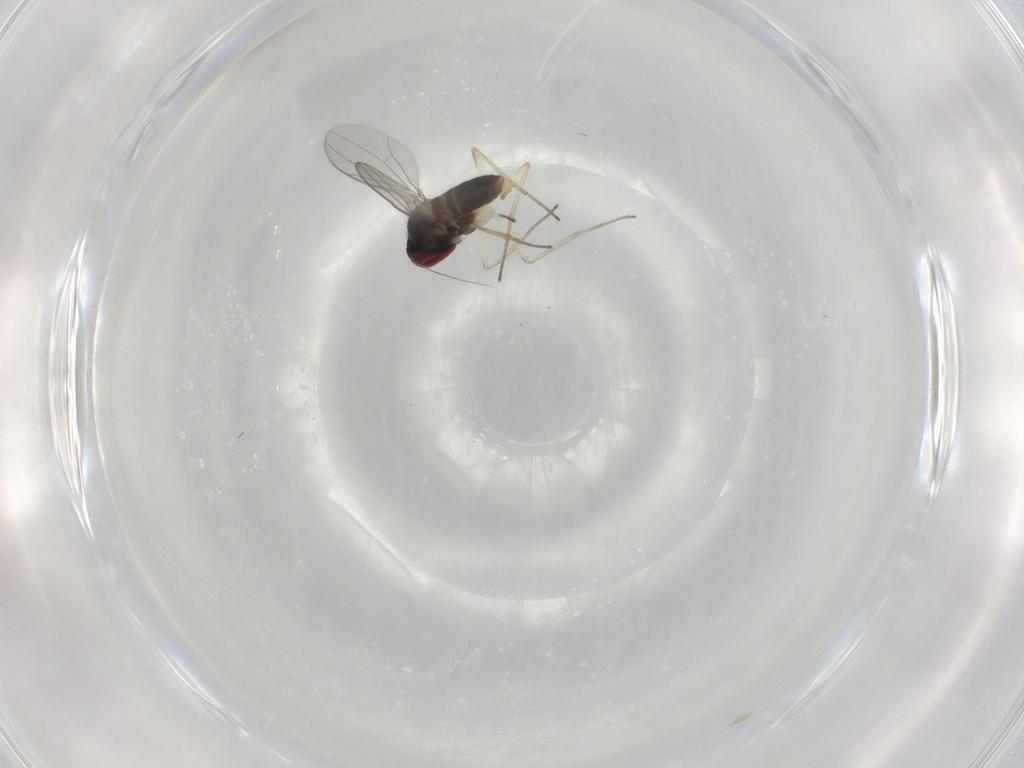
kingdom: Animalia
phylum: Arthropoda
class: Insecta
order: Diptera
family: Dolichopodidae
